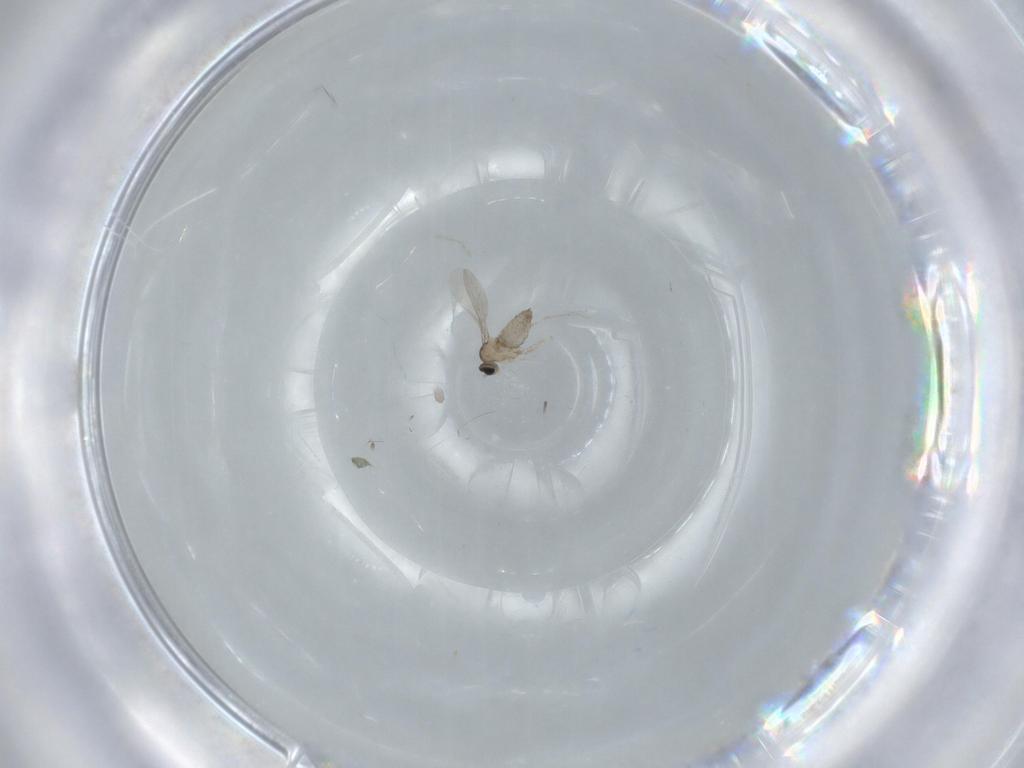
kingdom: Animalia
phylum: Arthropoda
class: Insecta
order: Diptera
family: Cecidomyiidae
